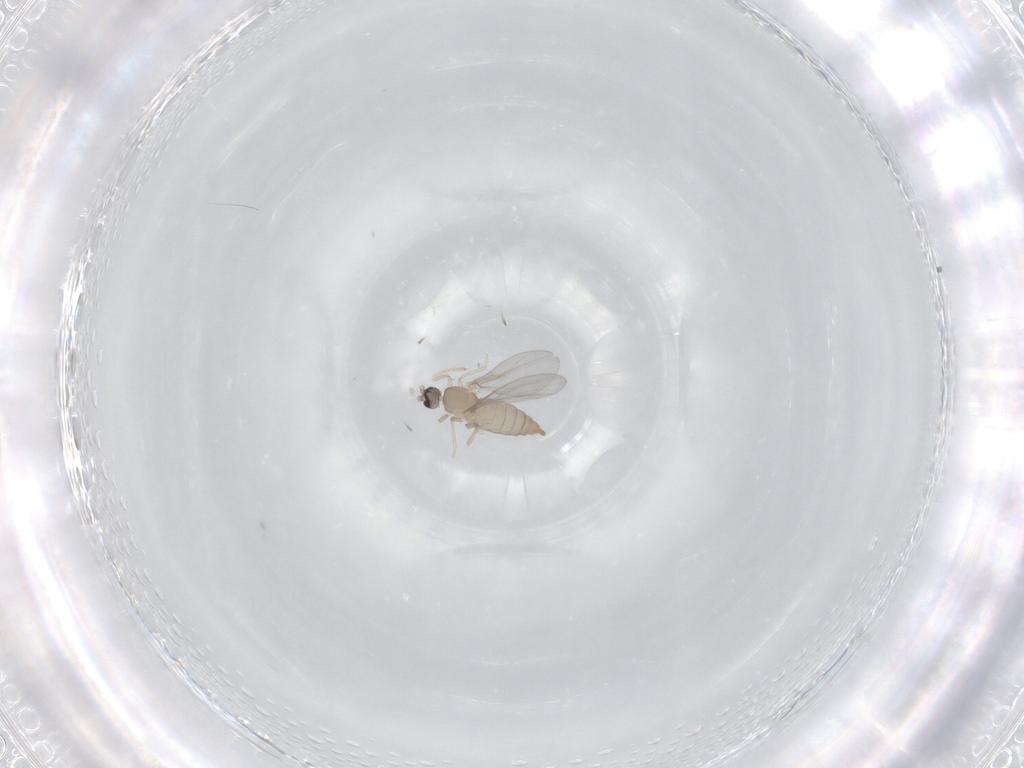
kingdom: Animalia
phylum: Arthropoda
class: Insecta
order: Diptera
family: Cecidomyiidae
